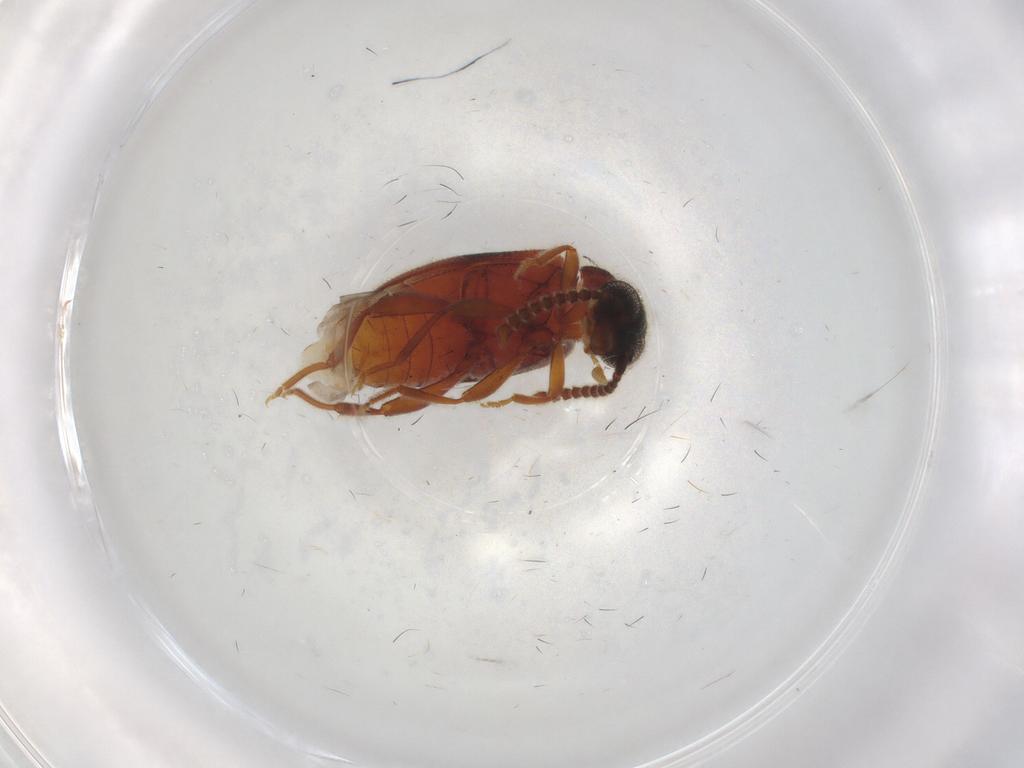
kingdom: Animalia
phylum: Arthropoda
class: Insecta
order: Coleoptera
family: Aderidae
